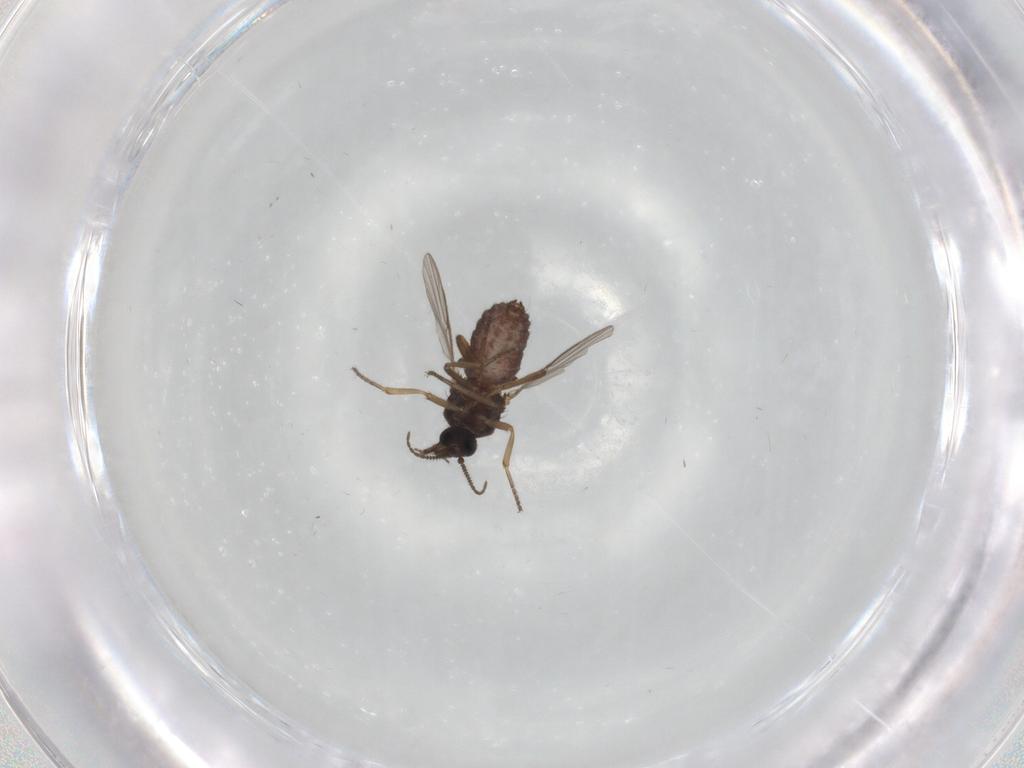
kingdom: Animalia
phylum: Arthropoda
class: Insecta
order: Diptera
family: Ceratopogonidae
